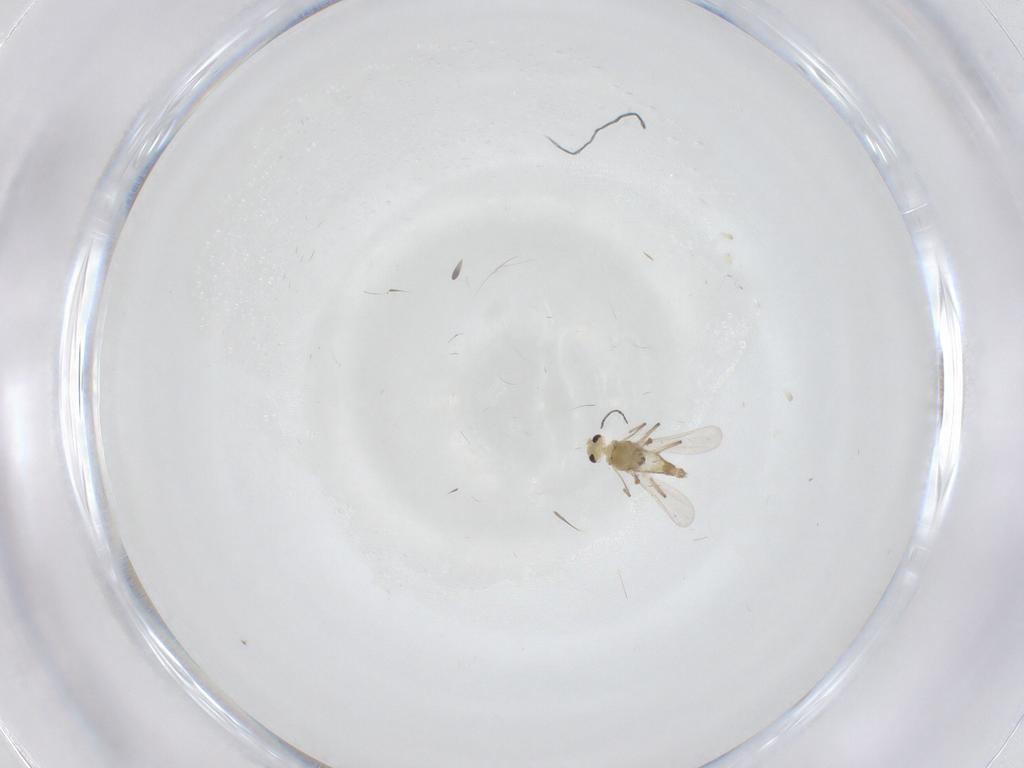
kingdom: Animalia
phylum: Arthropoda
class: Insecta
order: Diptera
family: Chironomidae
